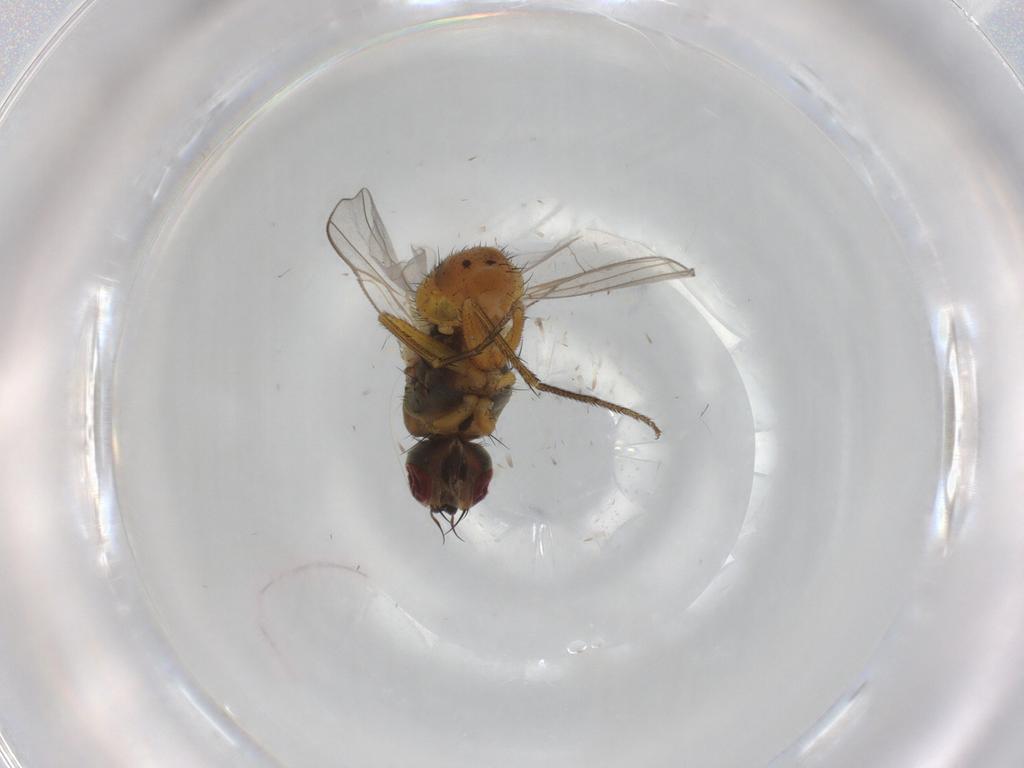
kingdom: Animalia
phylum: Arthropoda
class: Insecta
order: Diptera
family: Muscidae
